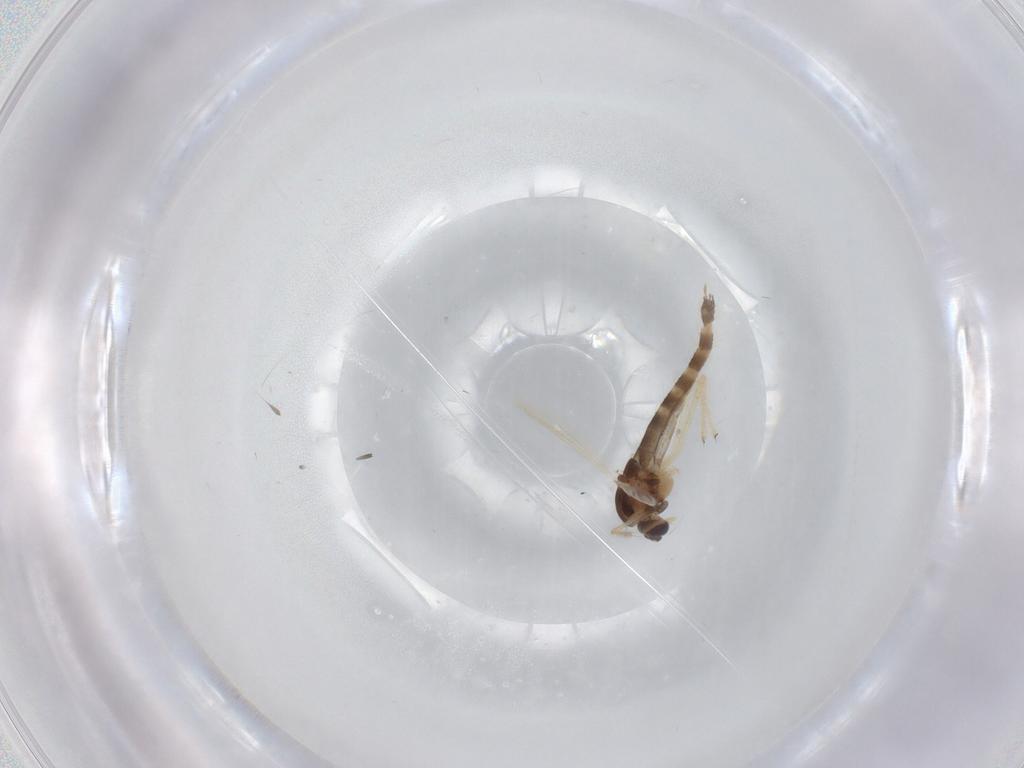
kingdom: Animalia
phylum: Arthropoda
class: Insecta
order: Diptera
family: Chironomidae
